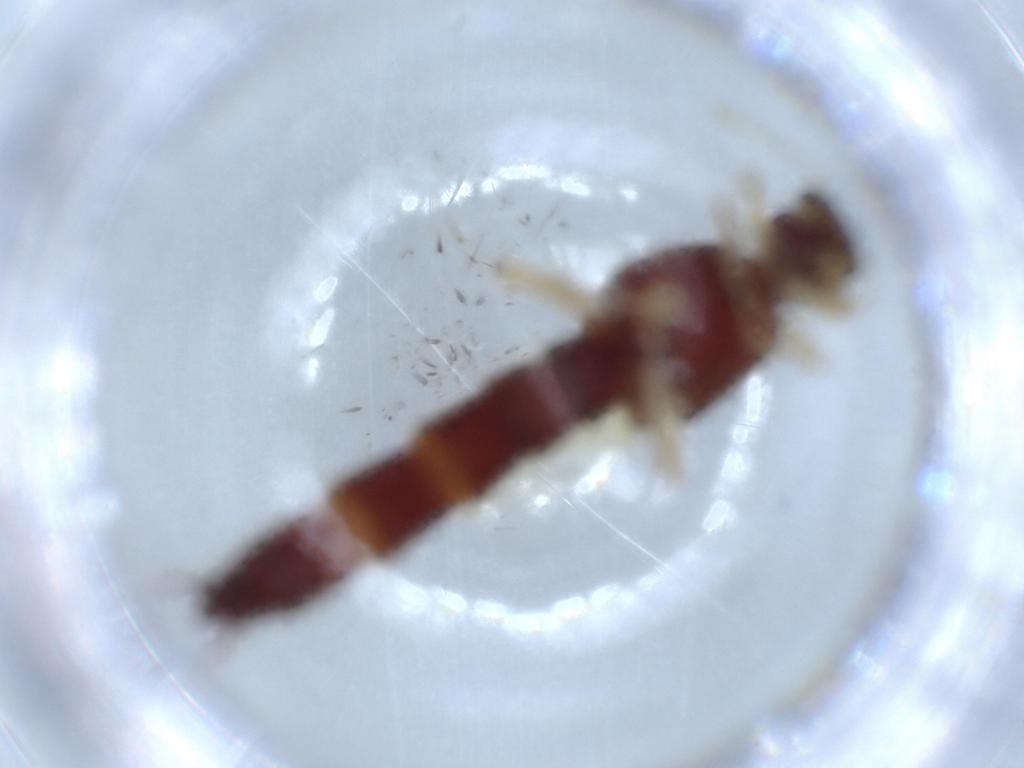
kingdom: Animalia
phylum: Arthropoda
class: Insecta
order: Coleoptera
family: Staphylinidae
